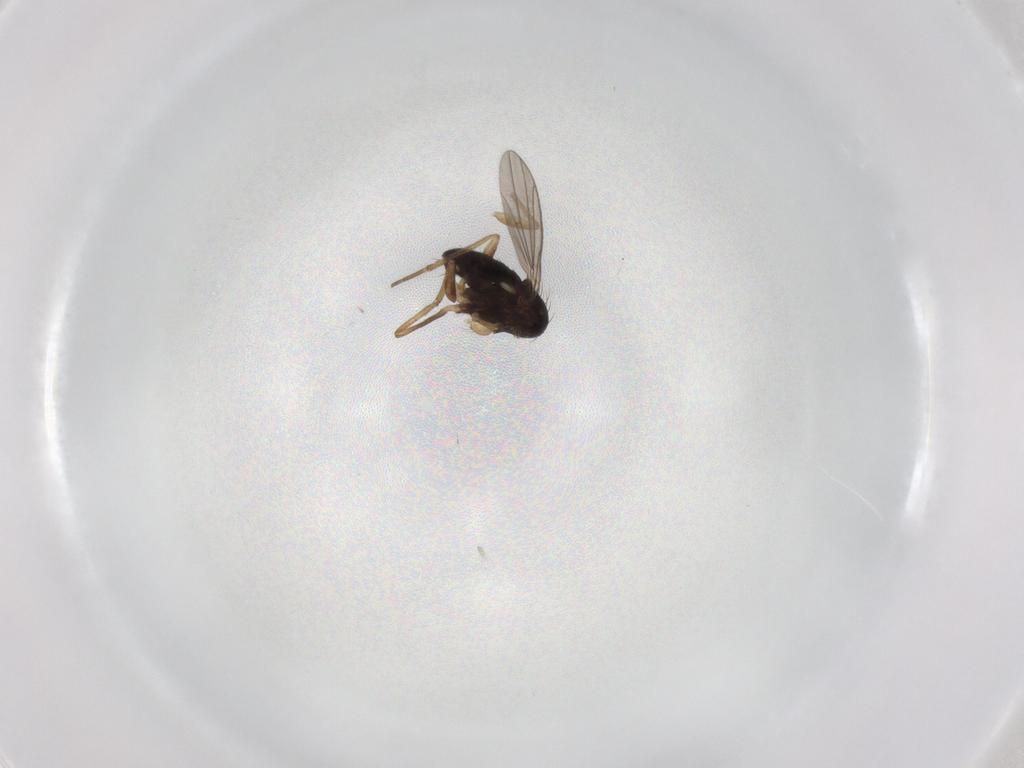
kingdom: Animalia
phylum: Arthropoda
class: Insecta
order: Diptera
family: Dolichopodidae
